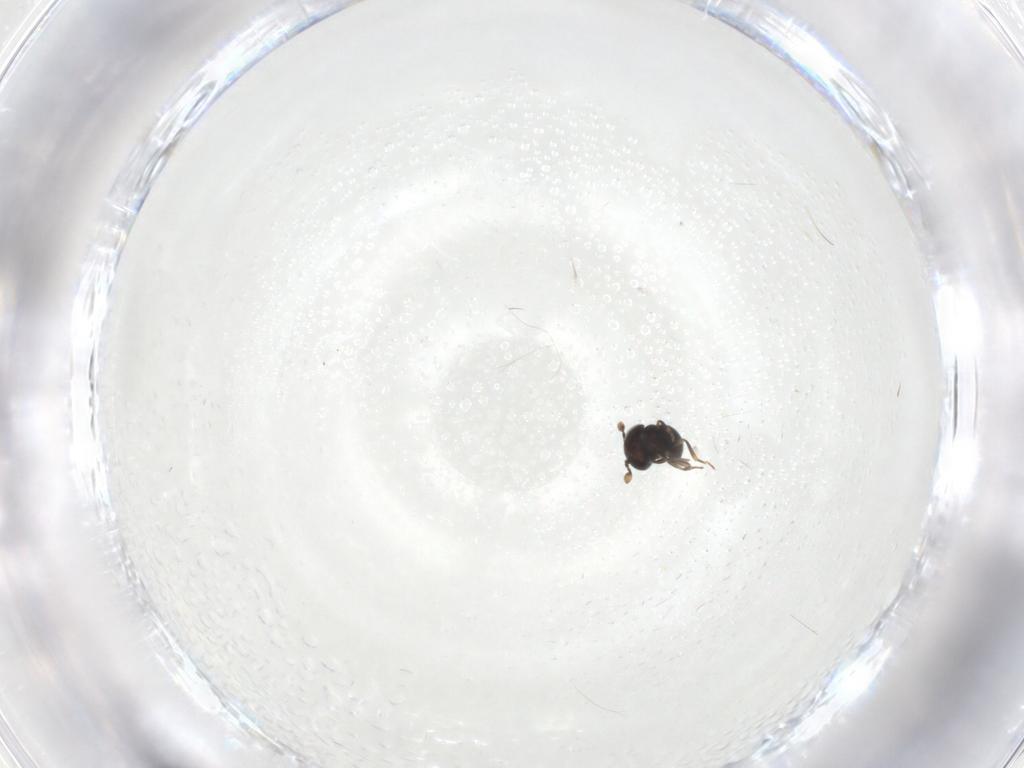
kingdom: Animalia
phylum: Arthropoda
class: Insecta
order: Hymenoptera
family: Scelionidae
